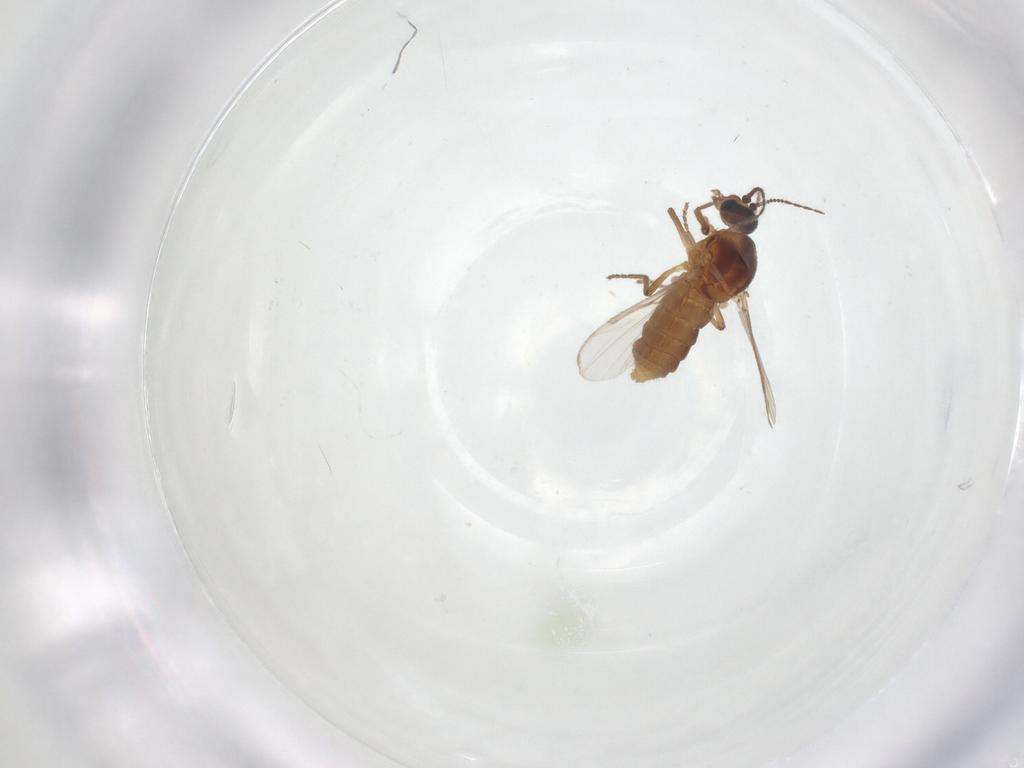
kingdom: Animalia
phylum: Arthropoda
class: Insecta
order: Diptera
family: Ceratopogonidae
